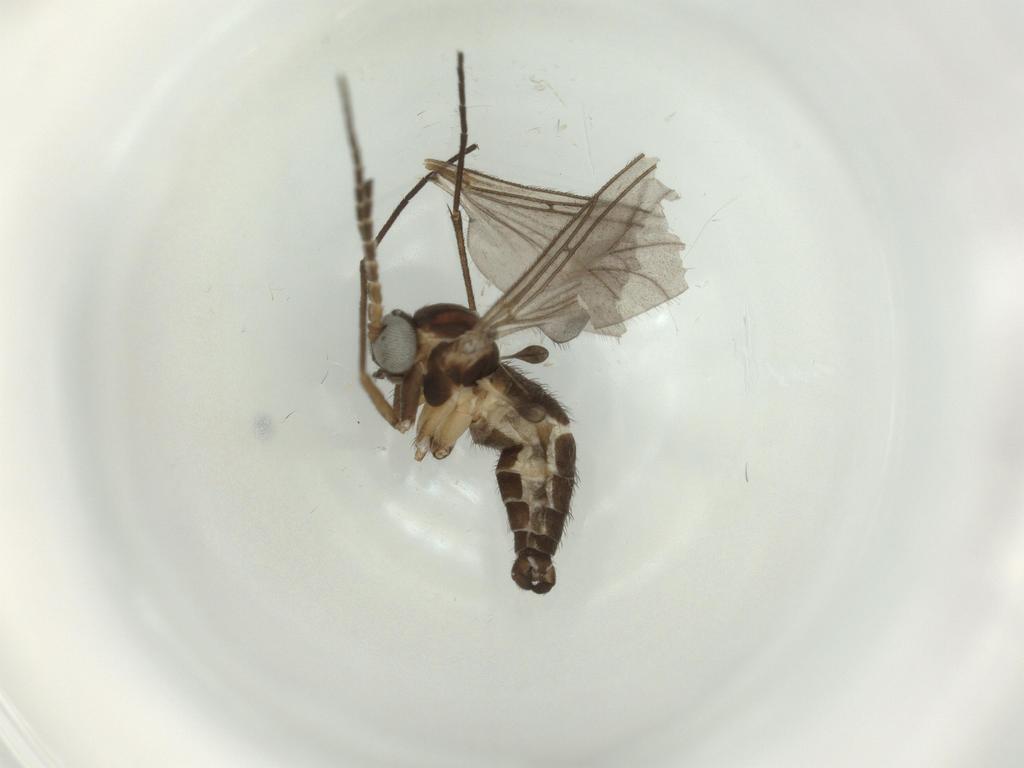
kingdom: Animalia
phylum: Arthropoda
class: Insecta
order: Diptera
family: Sciaridae
